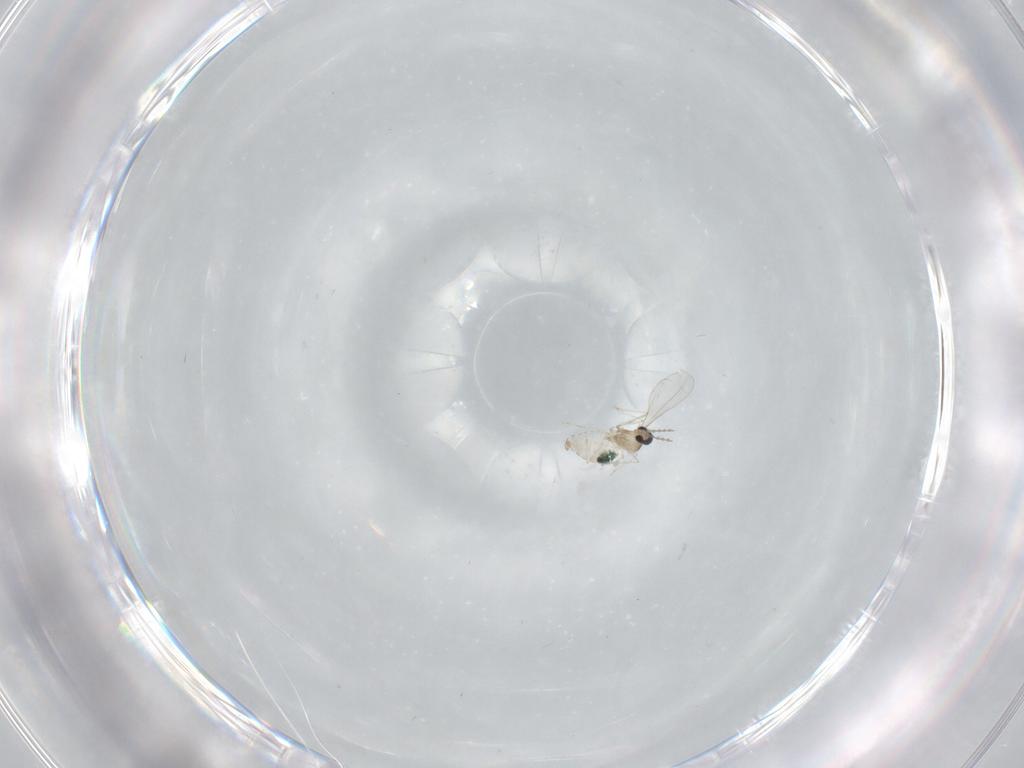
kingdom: Animalia
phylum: Arthropoda
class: Insecta
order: Diptera
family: Cecidomyiidae
